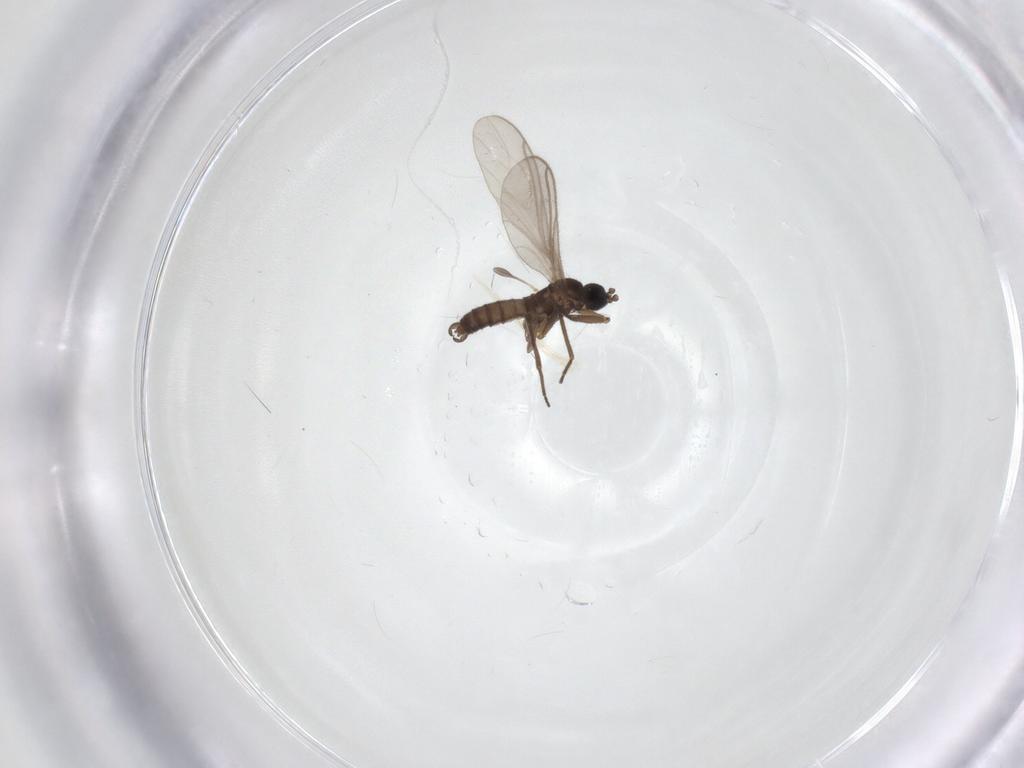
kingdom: Animalia
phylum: Arthropoda
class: Insecta
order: Diptera
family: Sciaridae
